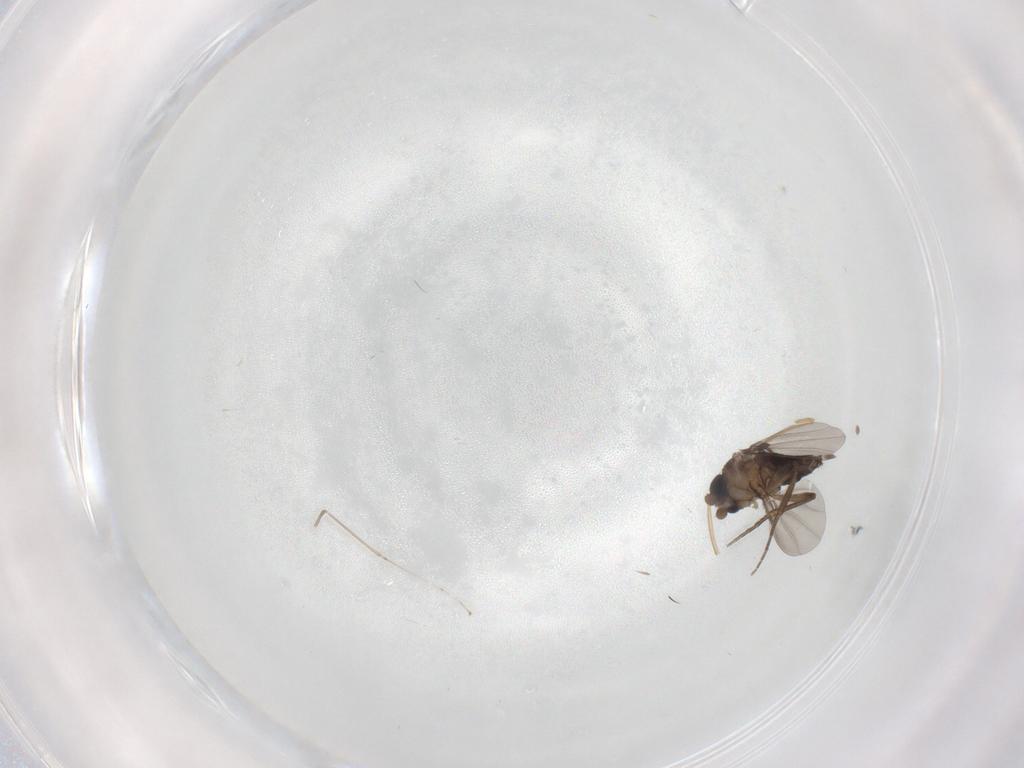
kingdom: Animalia
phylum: Arthropoda
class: Insecta
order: Diptera
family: Phoridae
